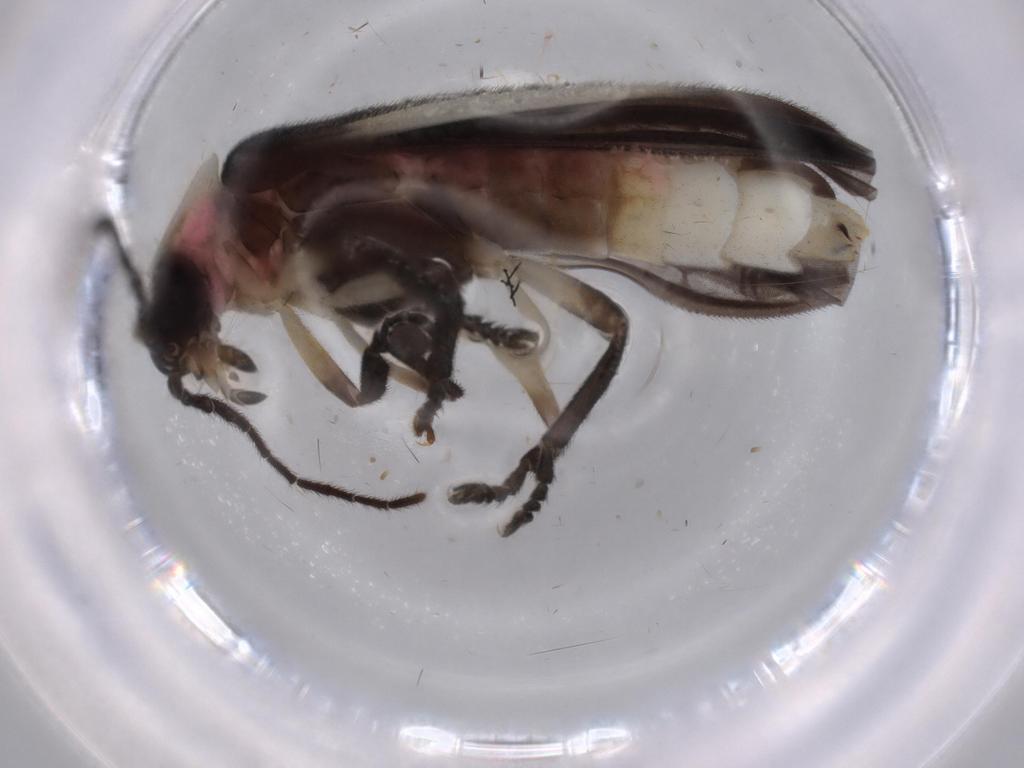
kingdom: Animalia
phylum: Arthropoda
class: Insecta
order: Coleoptera
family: Lampyridae
